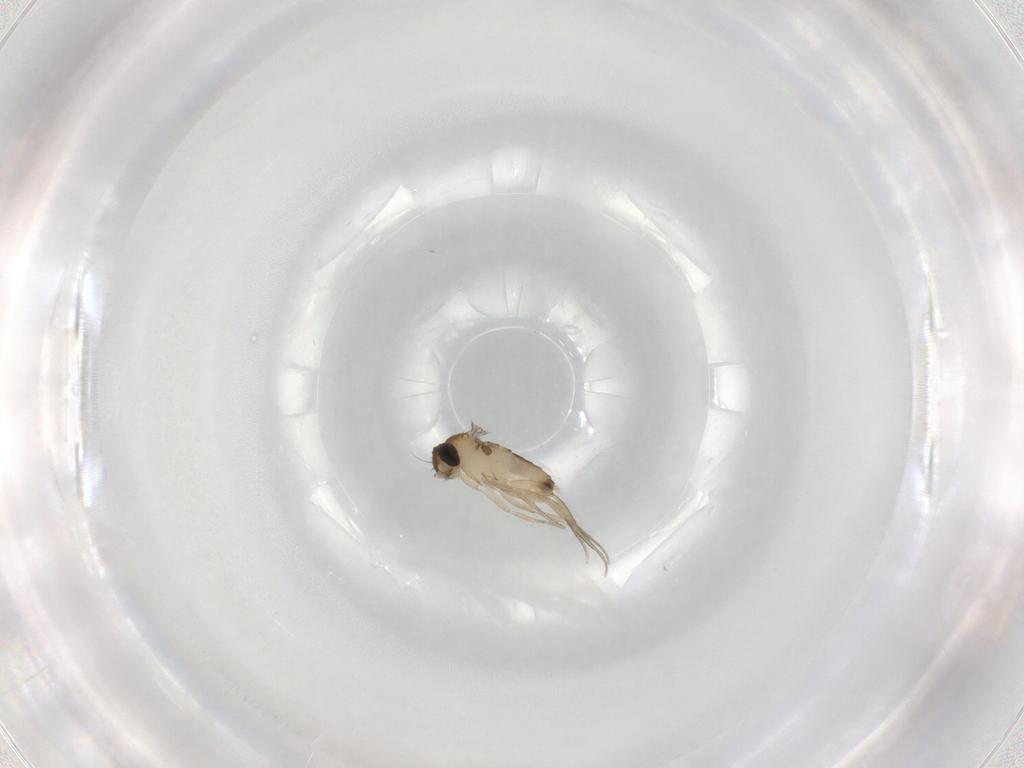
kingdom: Animalia
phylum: Arthropoda
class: Insecta
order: Diptera
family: Phoridae
